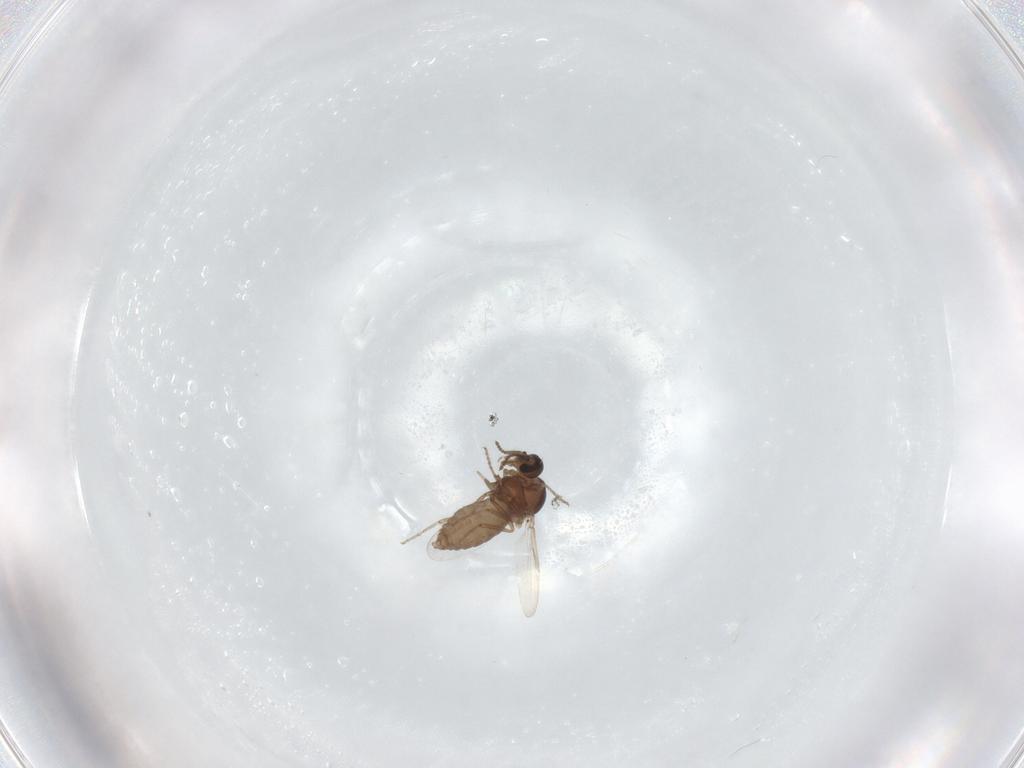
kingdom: Animalia
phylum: Arthropoda
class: Insecta
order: Diptera
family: Ceratopogonidae
